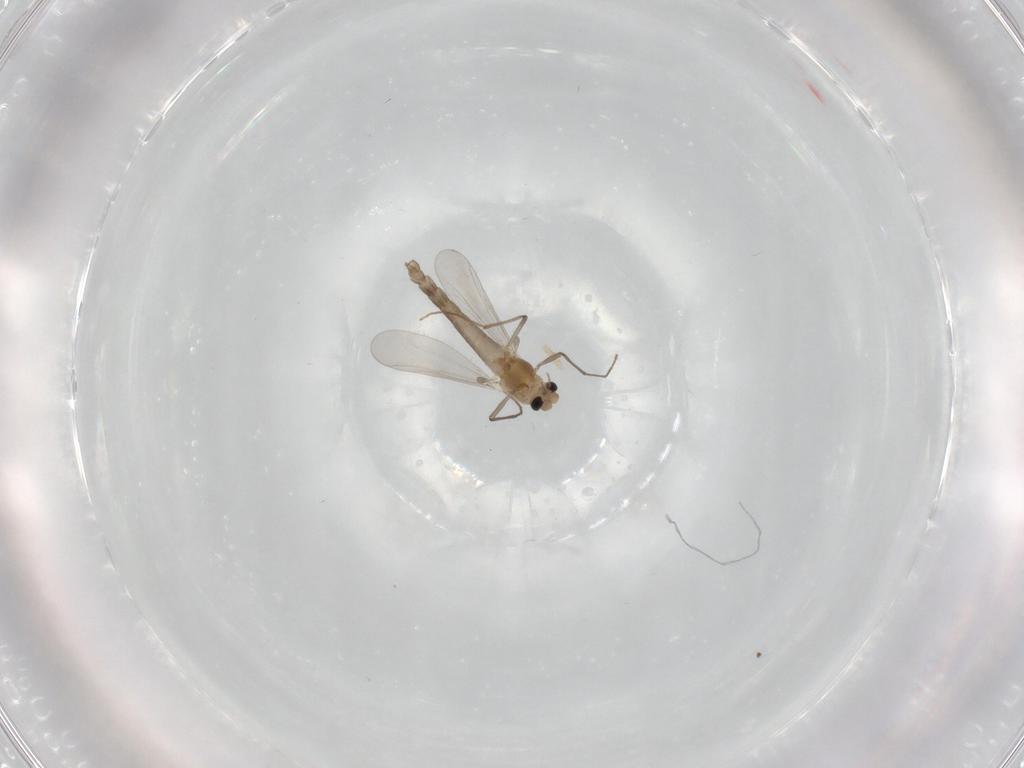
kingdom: Animalia
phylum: Arthropoda
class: Insecta
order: Diptera
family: Chironomidae
